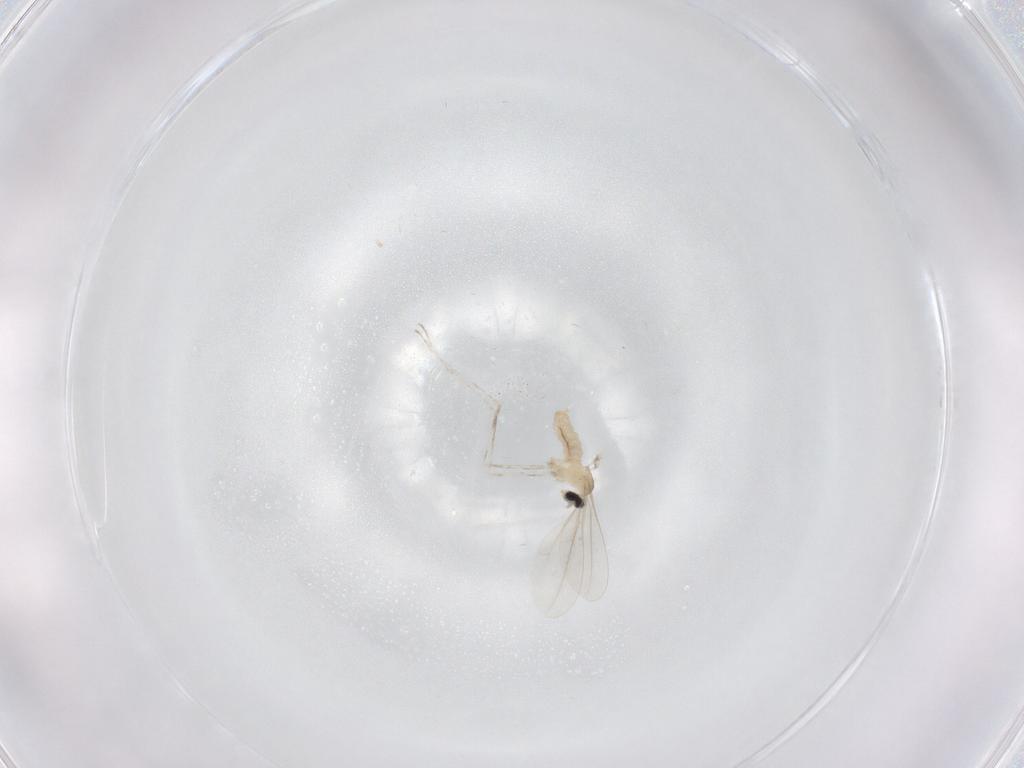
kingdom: Animalia
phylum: Arthropoda
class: Insecta
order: Diptera
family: Cecidomyiidae
